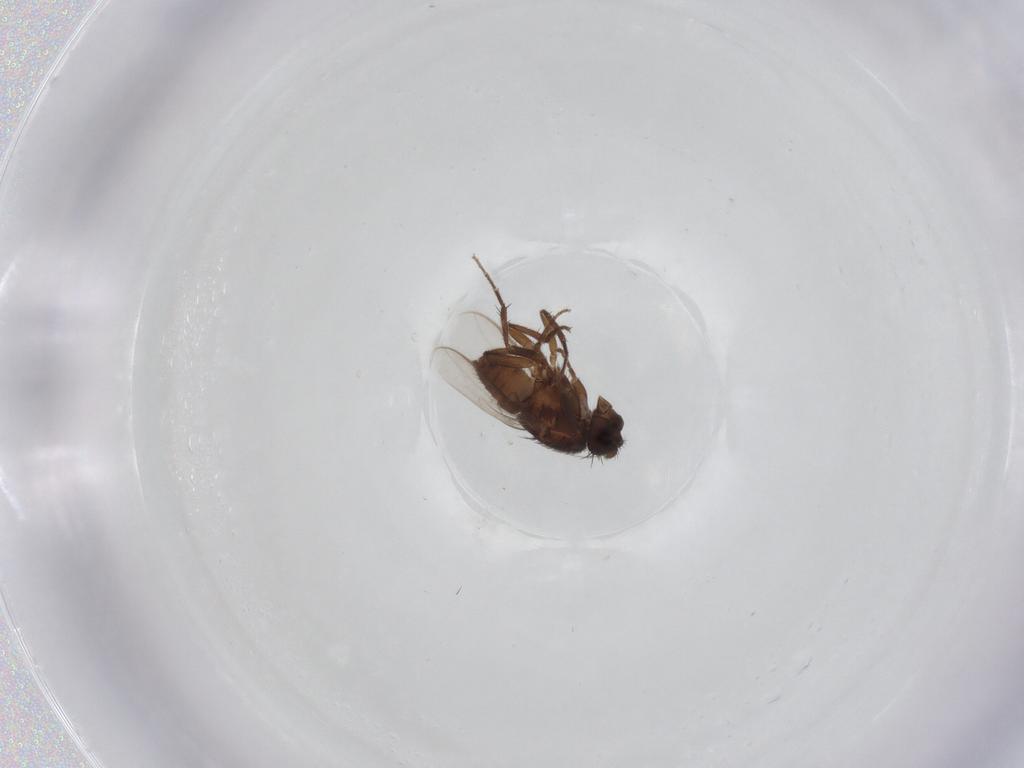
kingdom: Animalia
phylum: Arthropoda
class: Insecta
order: Diptera
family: Sphaeroceridae
